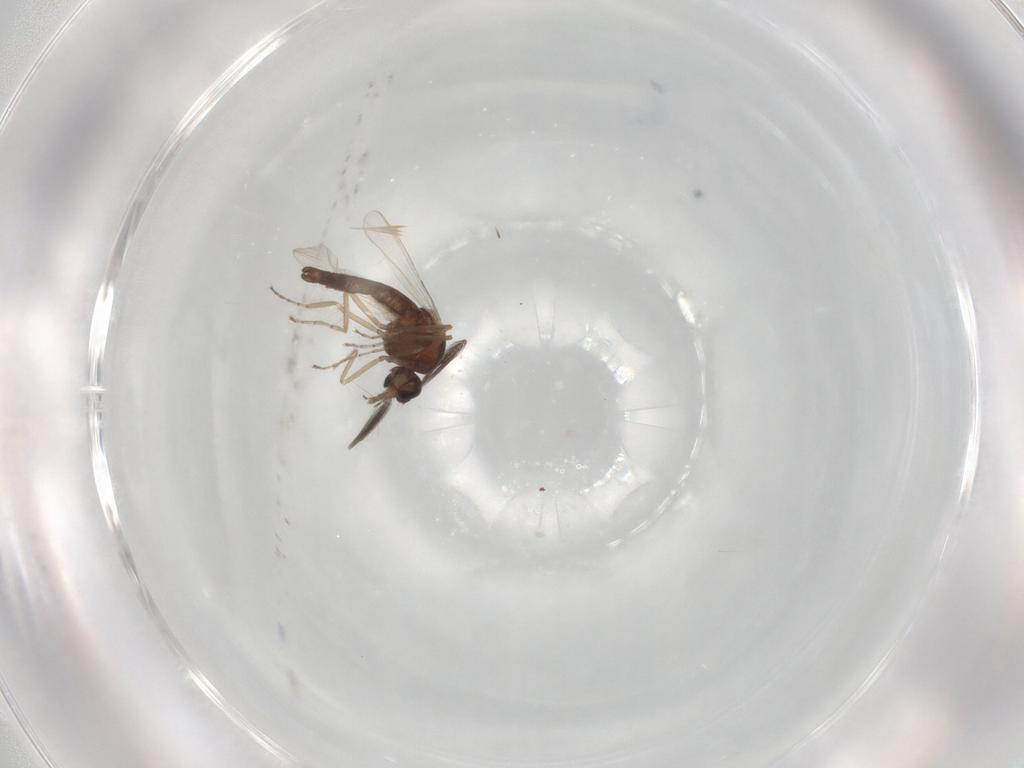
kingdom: Animalia
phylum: Arthropoda
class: Insecta
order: Diptera
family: Ceratopogonidae
